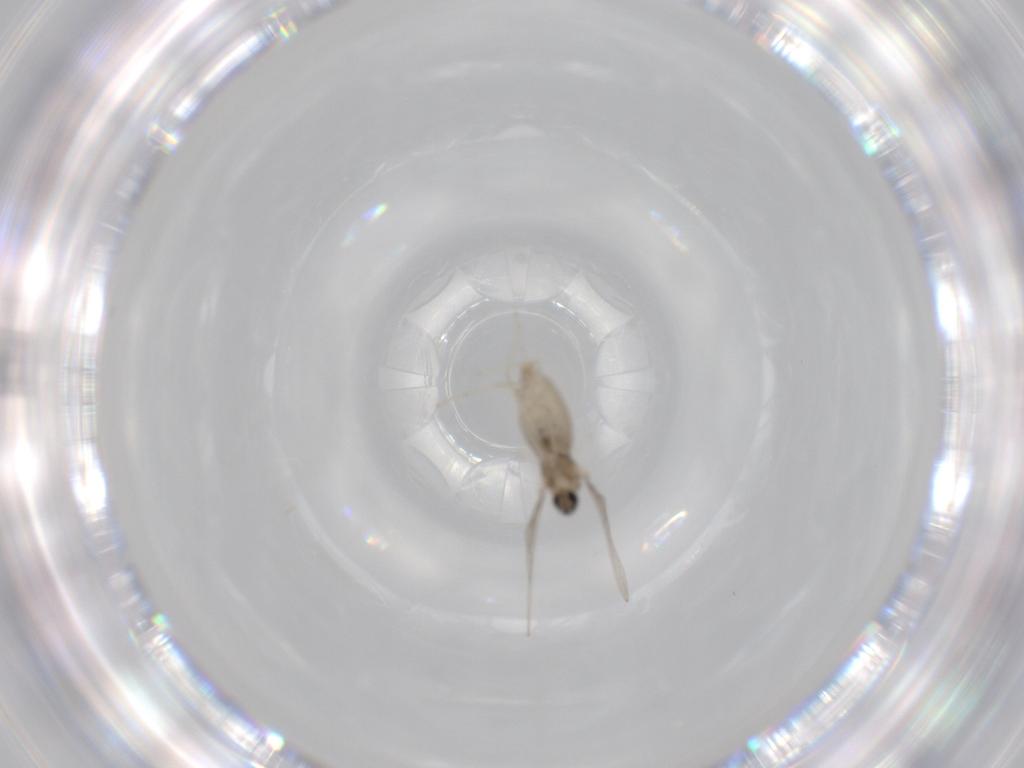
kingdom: Animalia
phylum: Arthropoda
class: Insecta
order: Diptera
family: Cecidomyiidae
